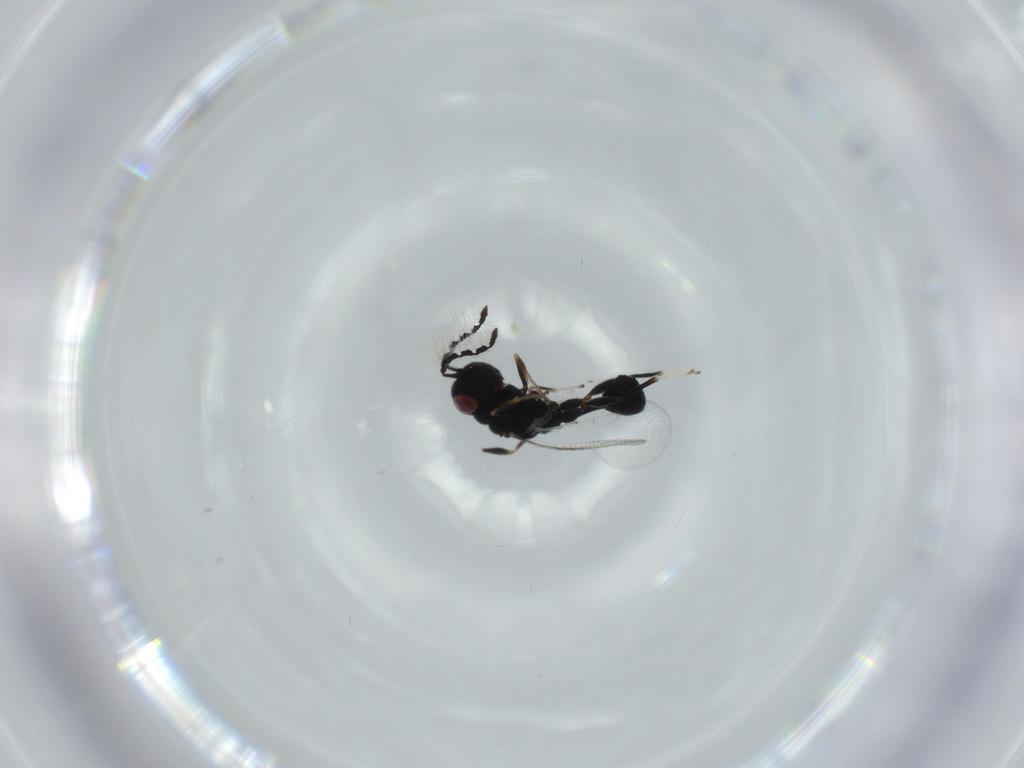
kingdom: Animalia
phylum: Arthropoda
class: Insecta
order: Hymenoptera
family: Eurytomidae
